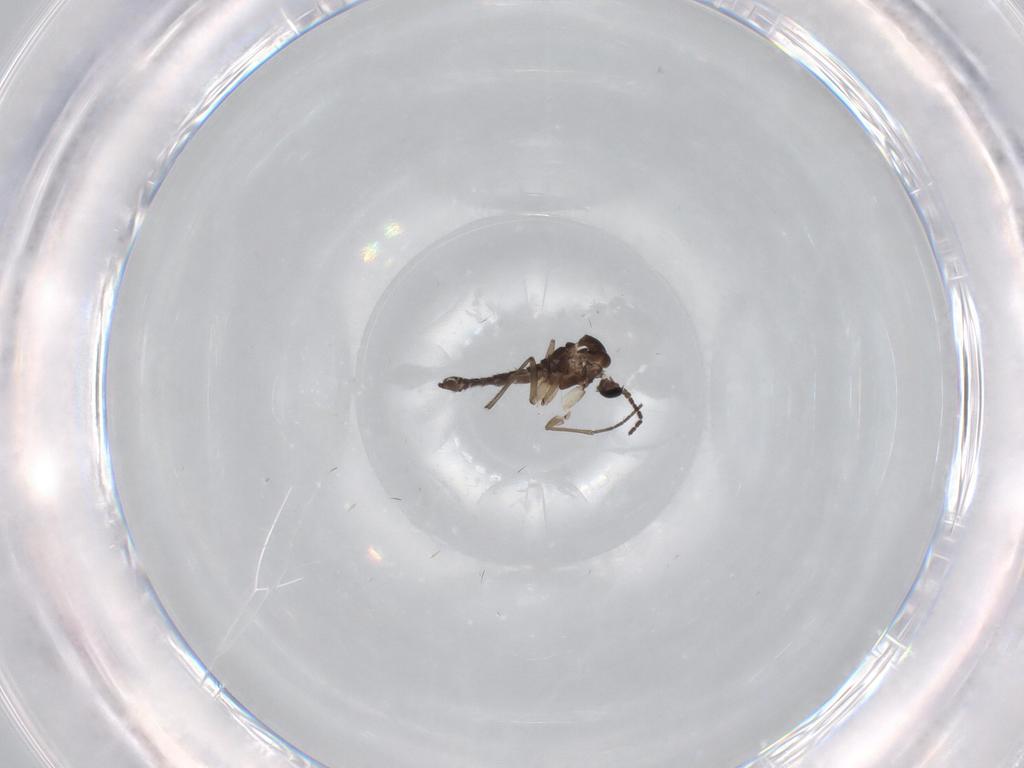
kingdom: Animalia
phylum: Arthropoda
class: Insecta
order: Diptera
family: Sciaridae
